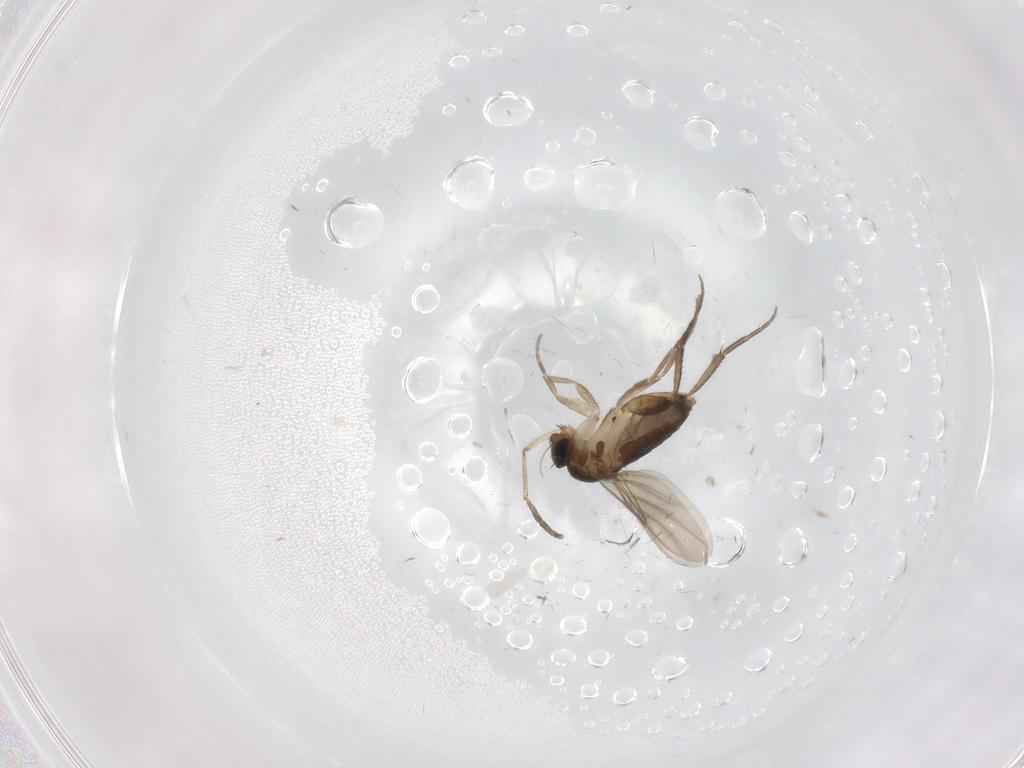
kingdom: Animalia
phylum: Arthropoda
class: Insecta
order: Diptera
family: Phoridae
